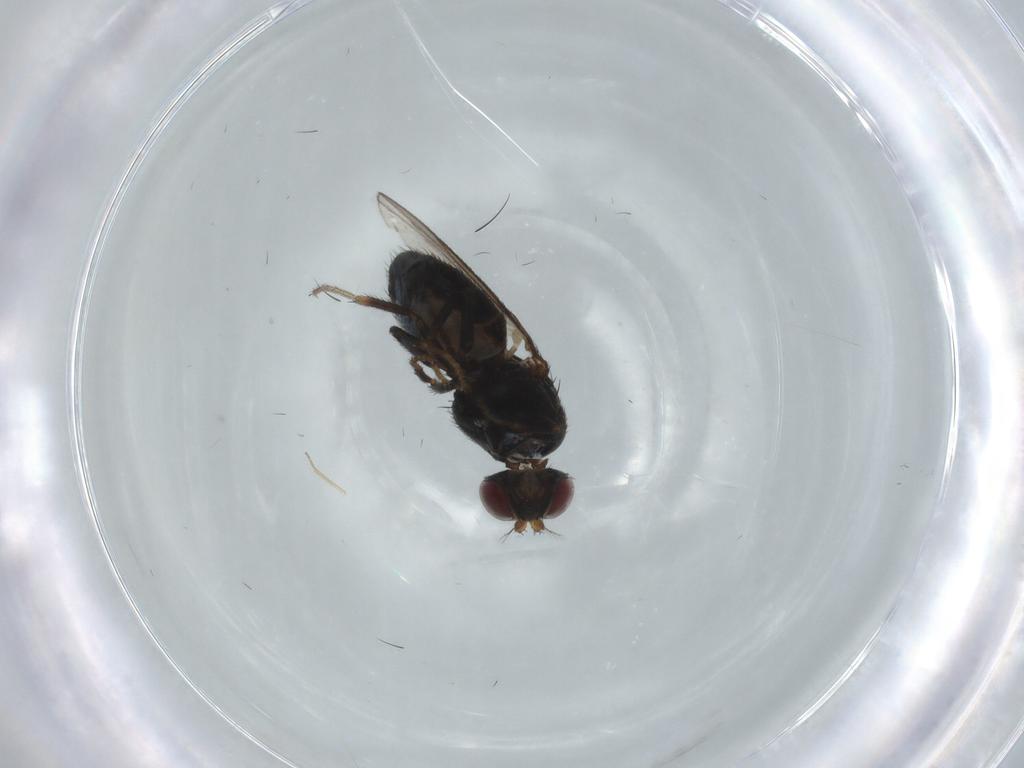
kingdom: Animalia
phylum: Arthropoda
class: Insecta
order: Diptera
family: Ephydridae
